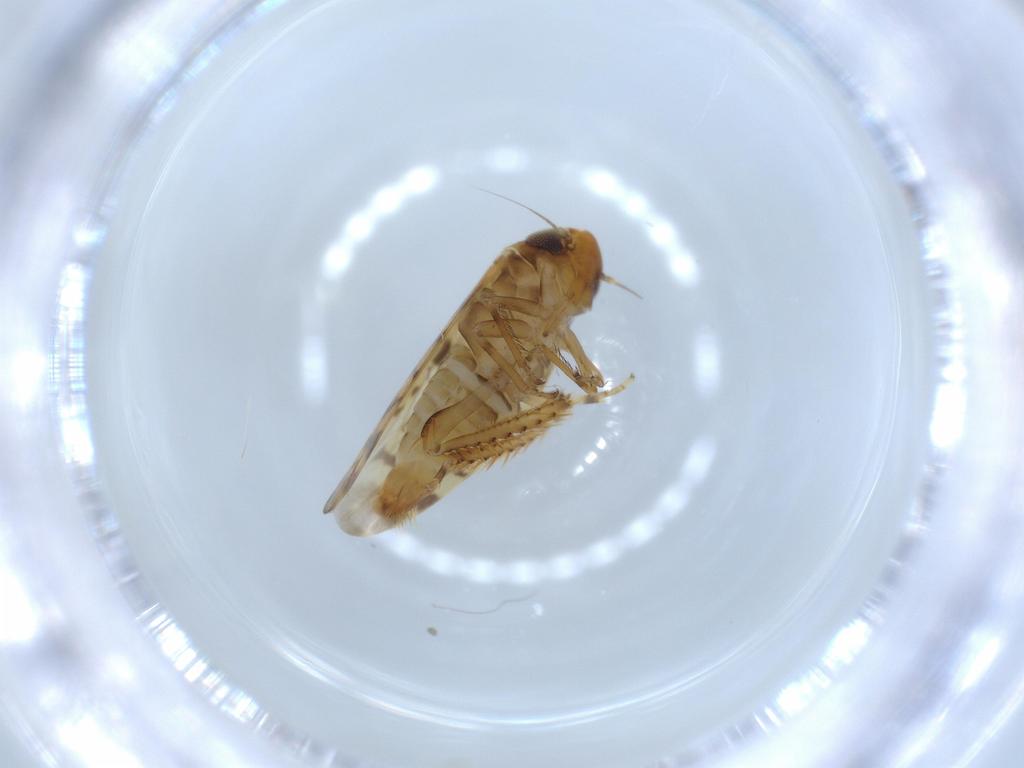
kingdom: Animalia
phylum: Arthropoda
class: Insecta
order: Hemiptera
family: Cicadellidae
